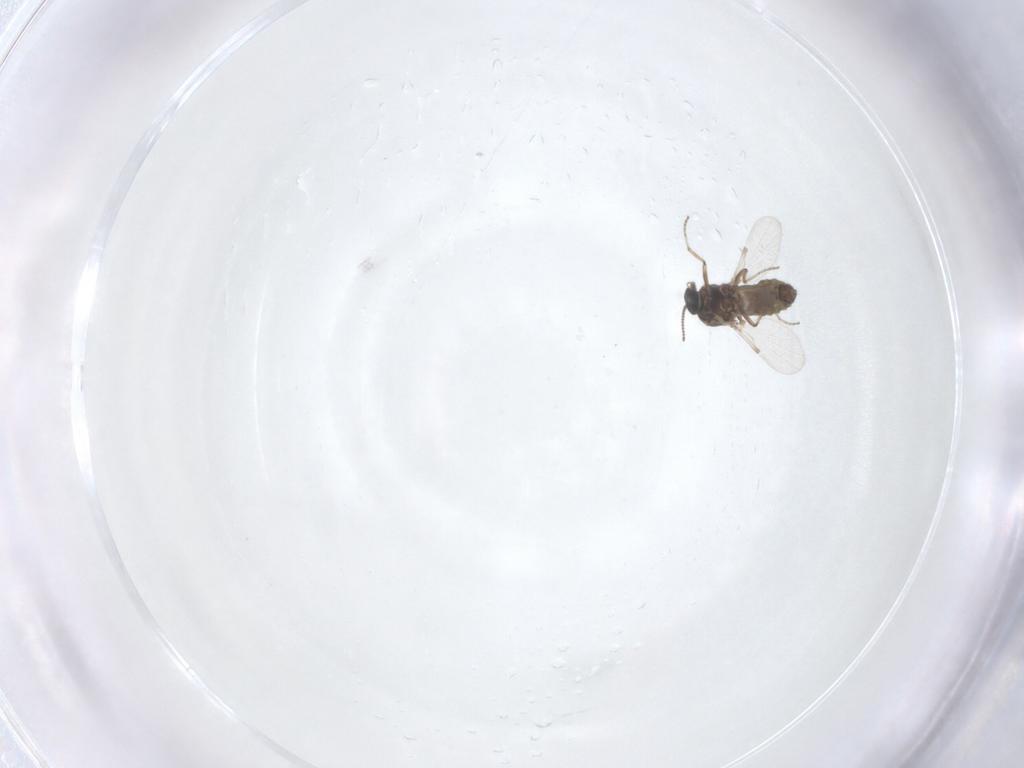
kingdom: Animalia
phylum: Arthropoda
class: Insecta
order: Diptera
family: Ceratopogonidae
